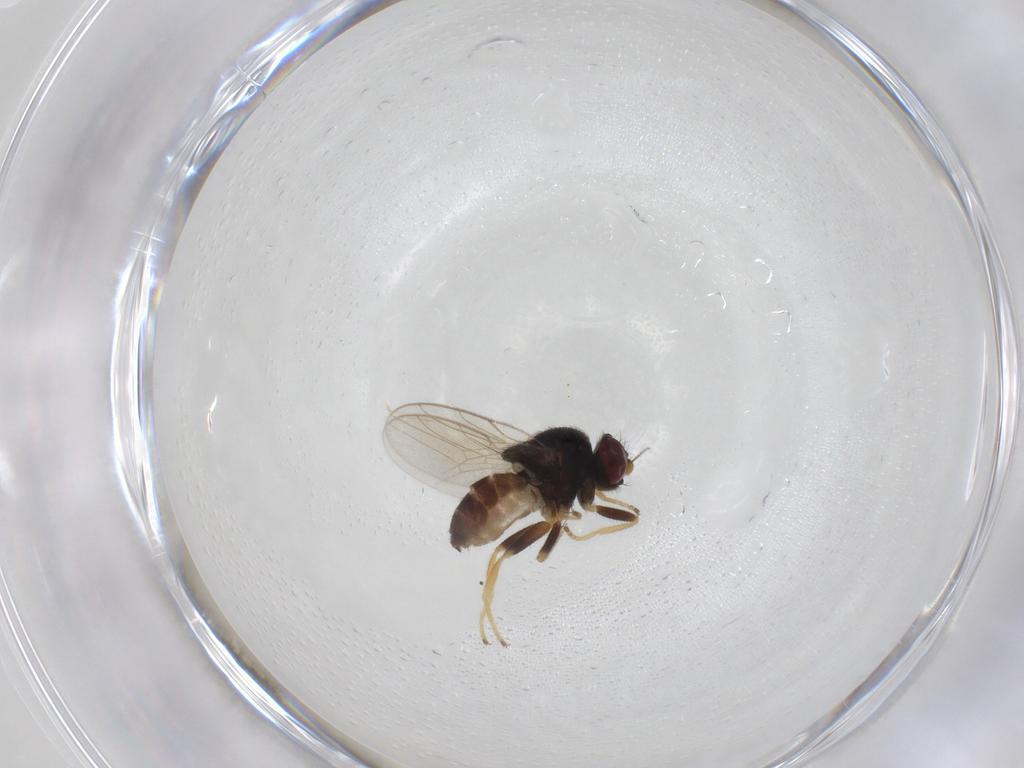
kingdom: Animalia
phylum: Arthropoda
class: Insecta
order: Diptera
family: Chloropidae
